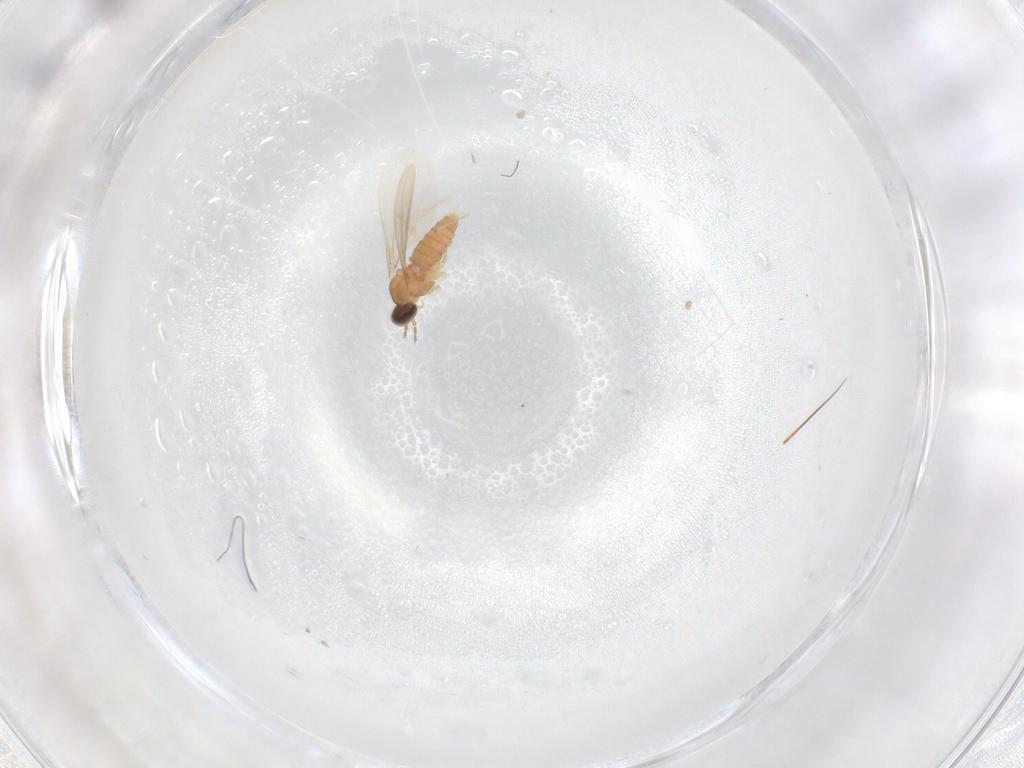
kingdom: Animalia
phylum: Arthropoda
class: Insecta
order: Diptera
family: Cecidomyiidae
